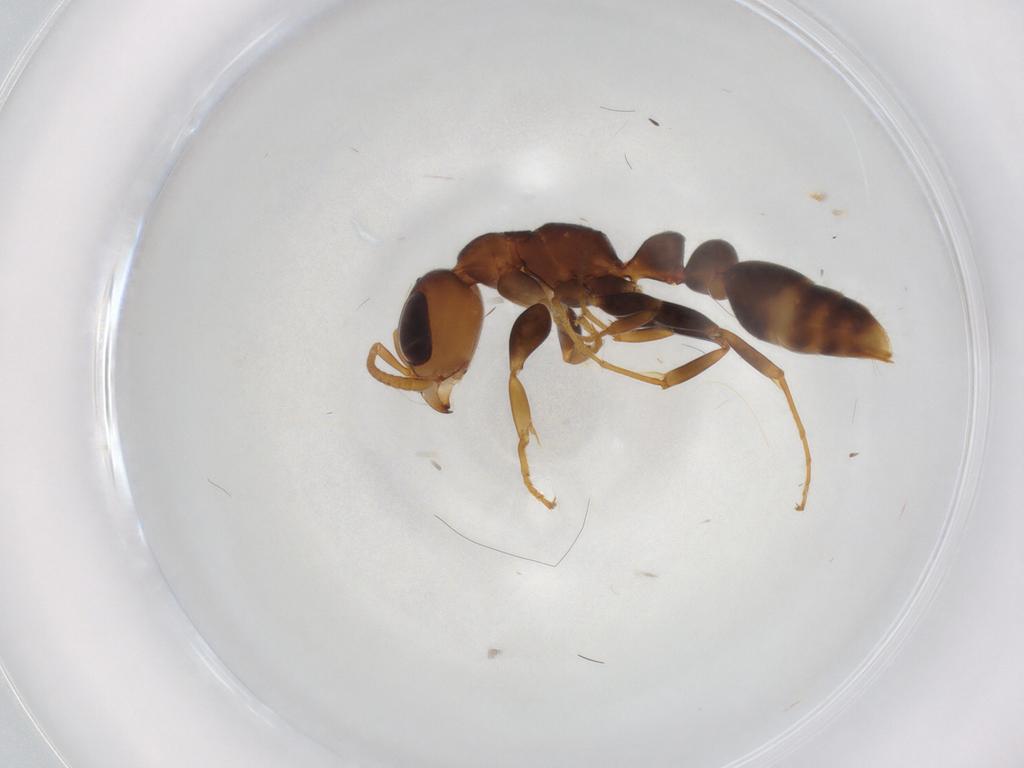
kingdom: Animalia
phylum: Arthropoda
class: Insecta
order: Hymenoptera
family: Formicidae
